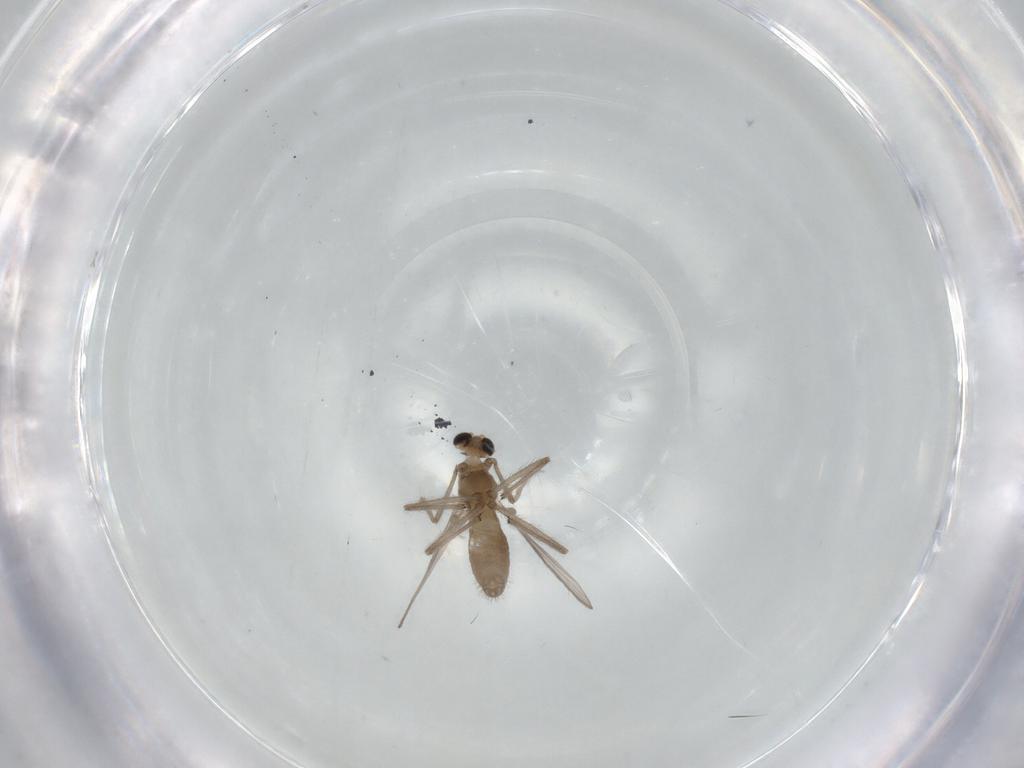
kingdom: Animalia
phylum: Arthropoda
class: Insecta
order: Diptera
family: Chironomidae
